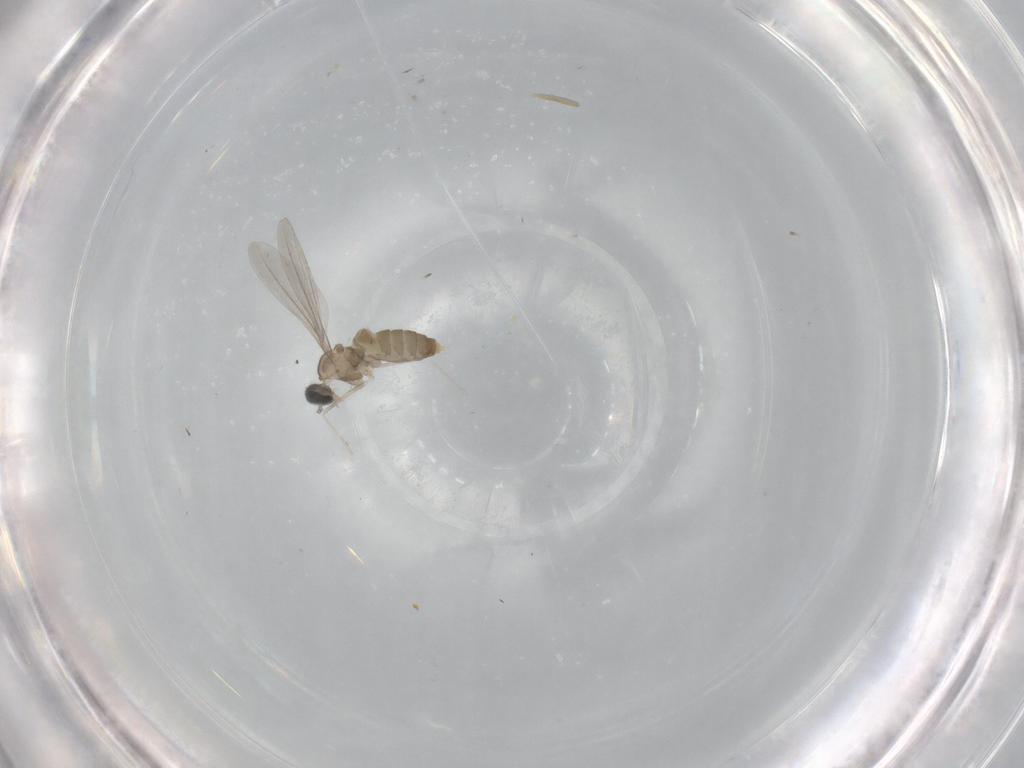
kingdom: Animalia
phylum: Arthropoda
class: Insecta
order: Diptera
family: Cecidomyiidae
